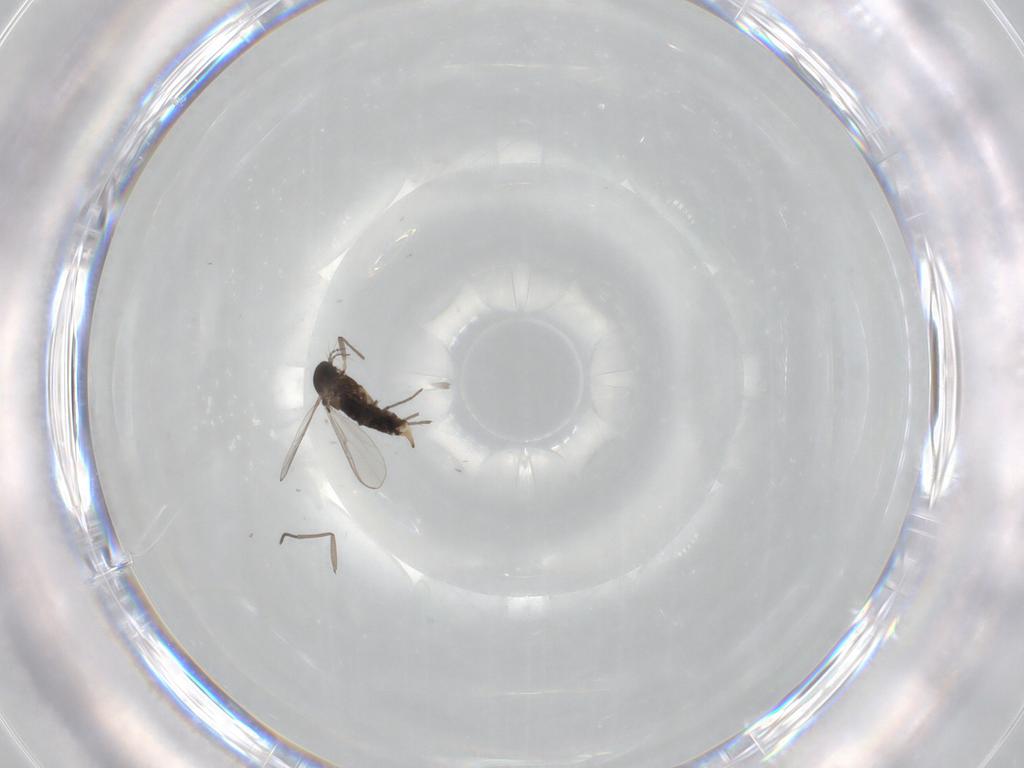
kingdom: Animalia
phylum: Arthropoda
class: Insecta
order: Diptera
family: Chironomidae
